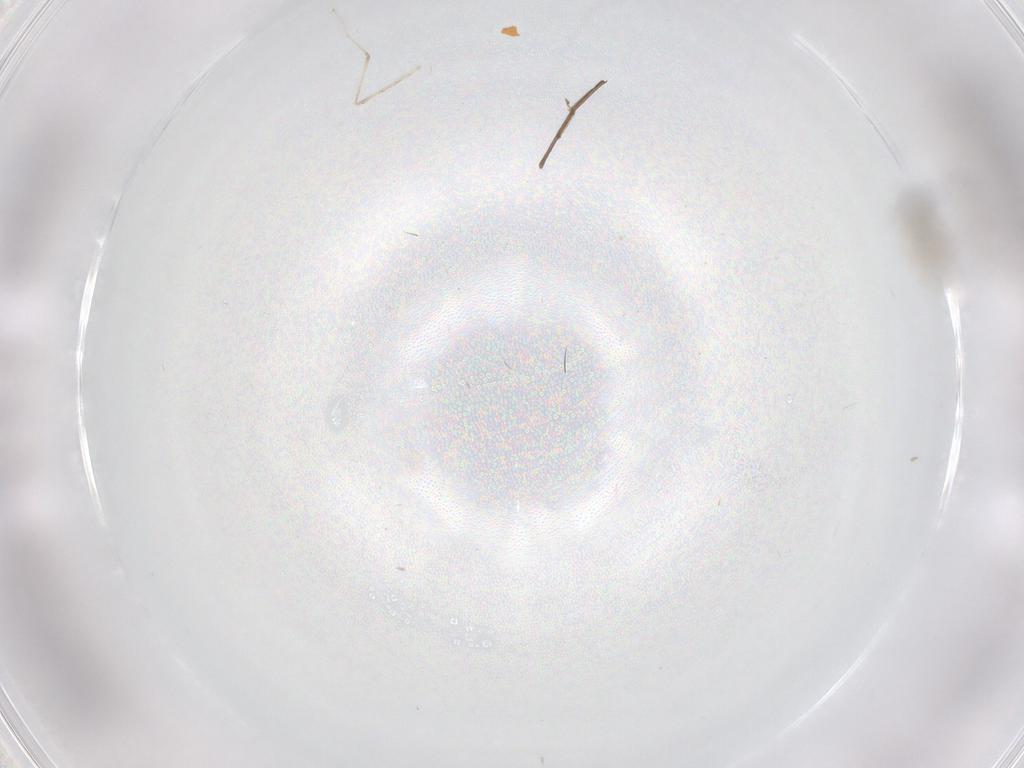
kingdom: Animalia
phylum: Arthropoda
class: Insecta
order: Diptera
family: Cecidomyiidae
